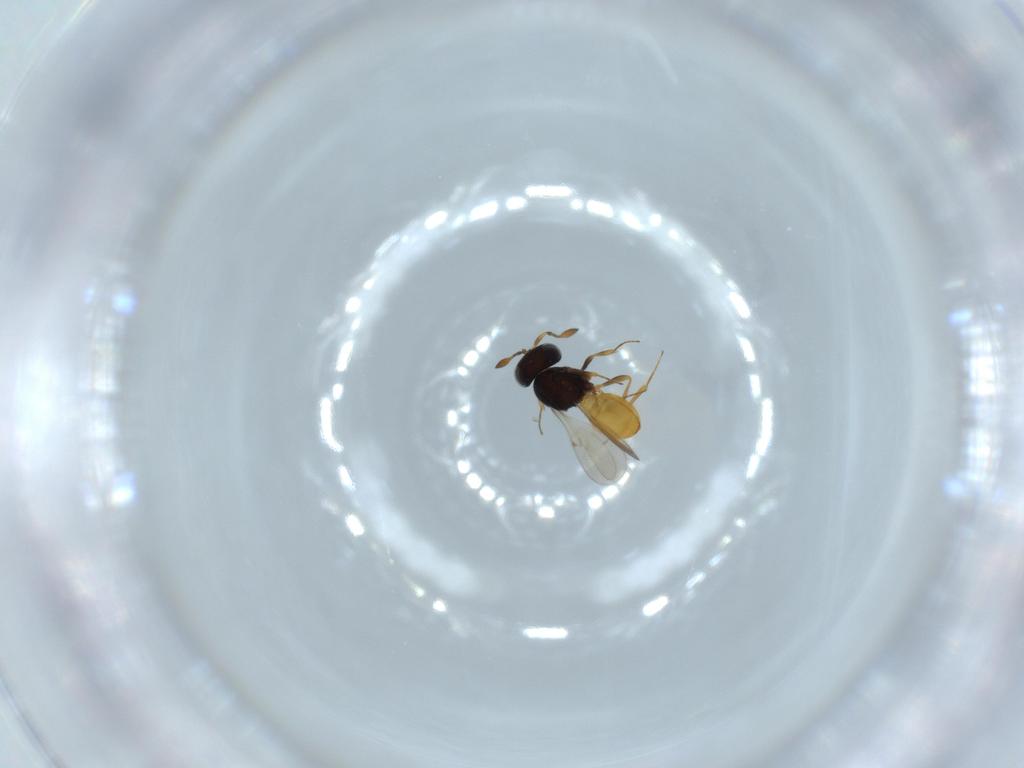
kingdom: Animalia
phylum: Arthropoda
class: Insecta
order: Hymenoptera
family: Scelionidae
